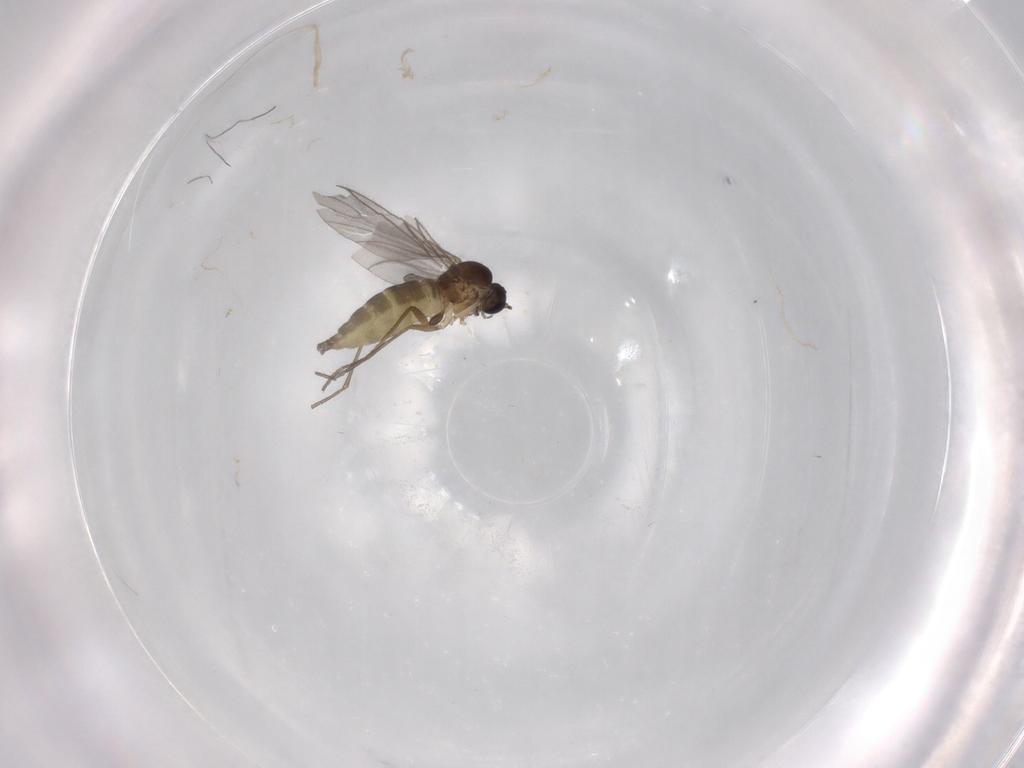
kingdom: Animalia
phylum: Arthropoda
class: Insecta
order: Diptera
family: Sciaridae
